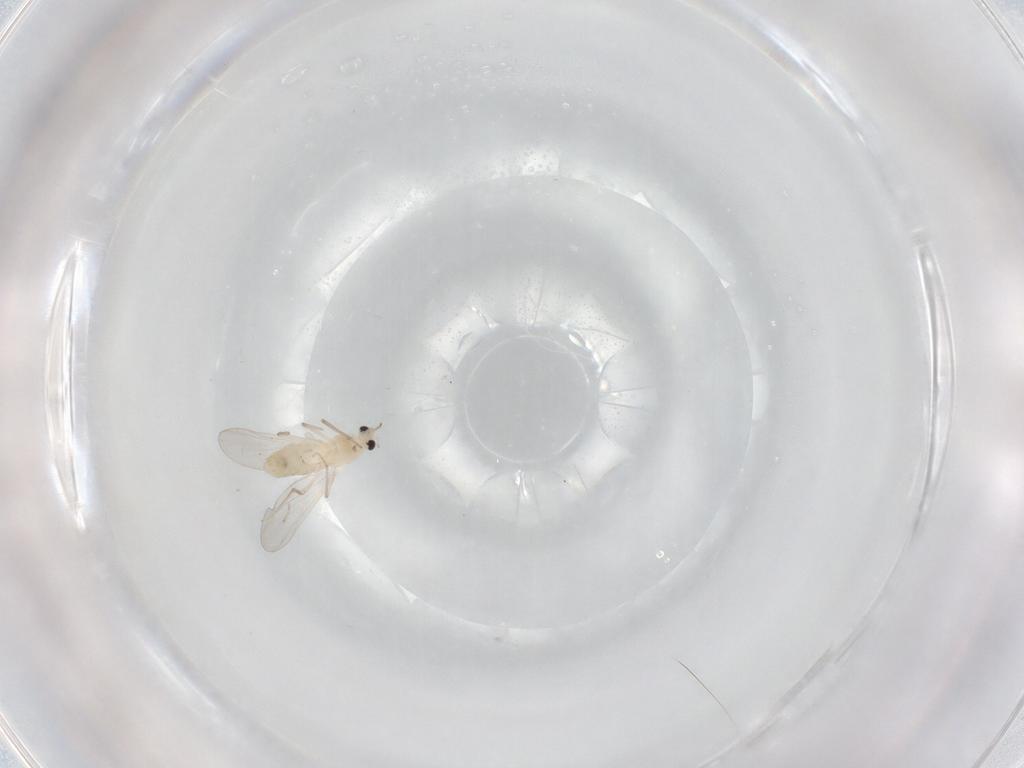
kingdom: Animalia
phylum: Arthropoda
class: Insecta
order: Diptera
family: Chironomidae
